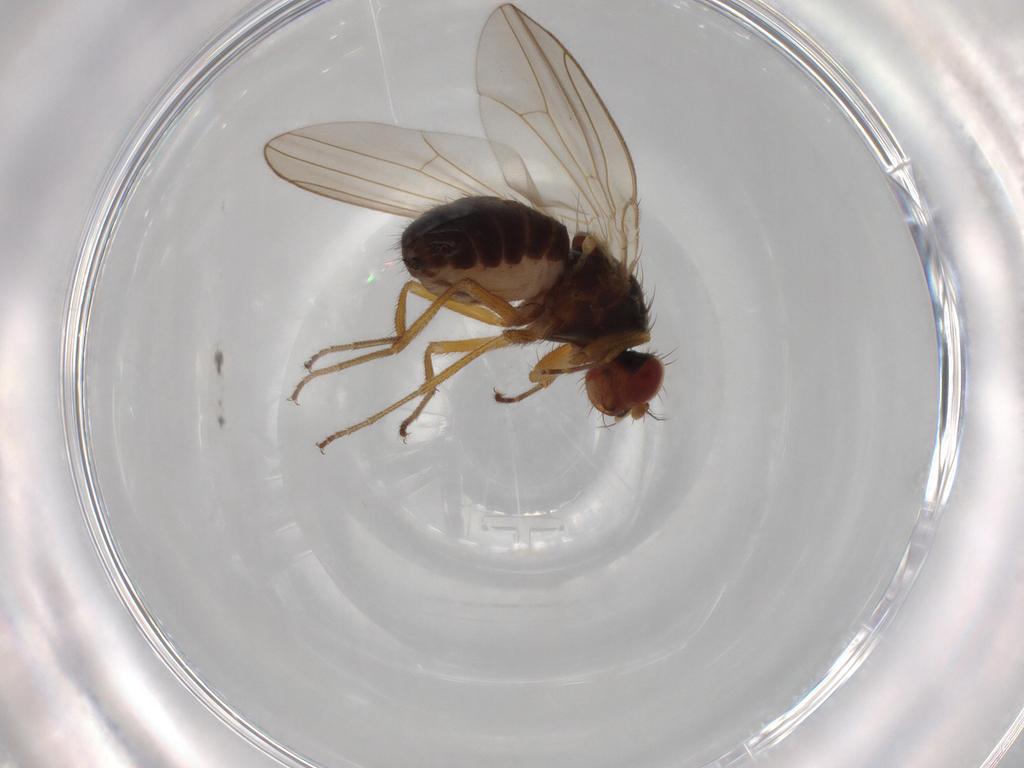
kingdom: Animalia
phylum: Arthropoda
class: Insecta
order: Diptera
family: Drosophilidae
